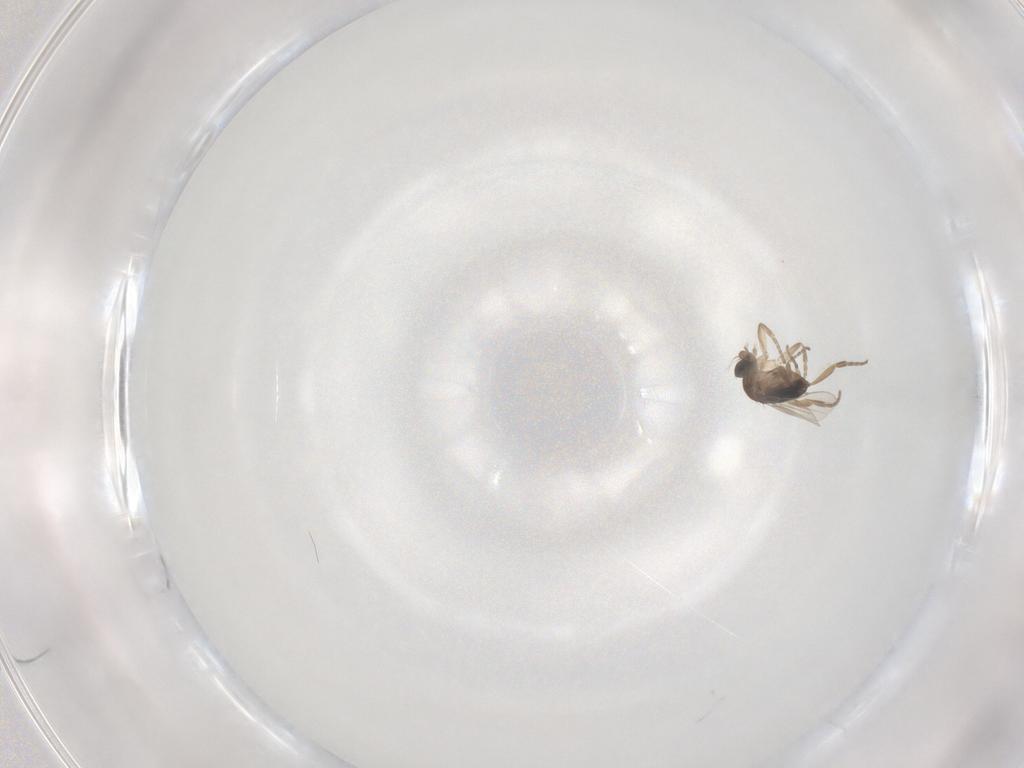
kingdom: Animalia
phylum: Arthropoda
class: Insecta
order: Diptera
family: Phoridae
